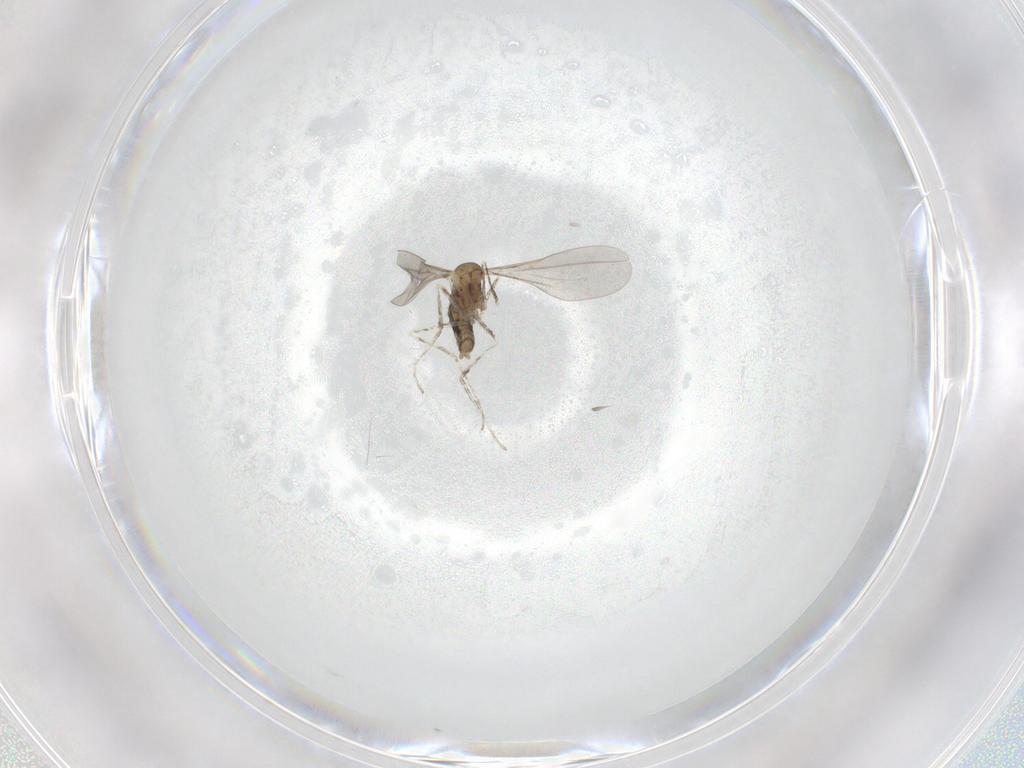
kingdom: Animalia
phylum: Arthropoda
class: Insecta
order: Diptera
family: Cecidomyiidae
